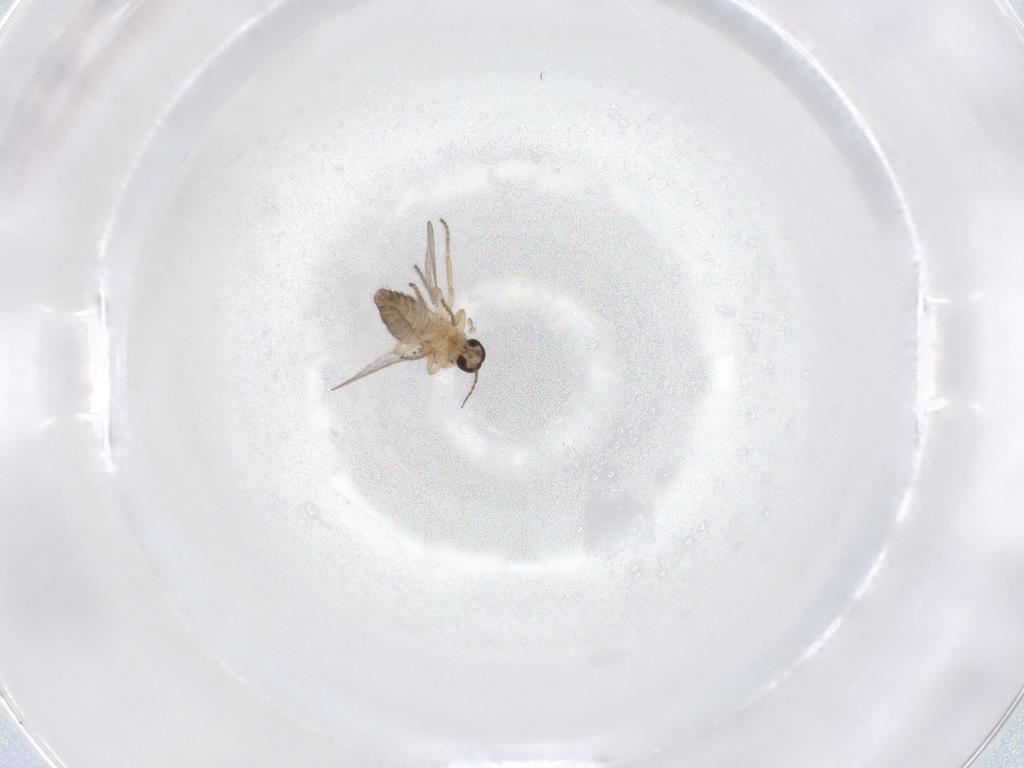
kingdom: Animalia
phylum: Arthropoda
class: Insecta
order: Diptera
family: Ceratopogonidae
